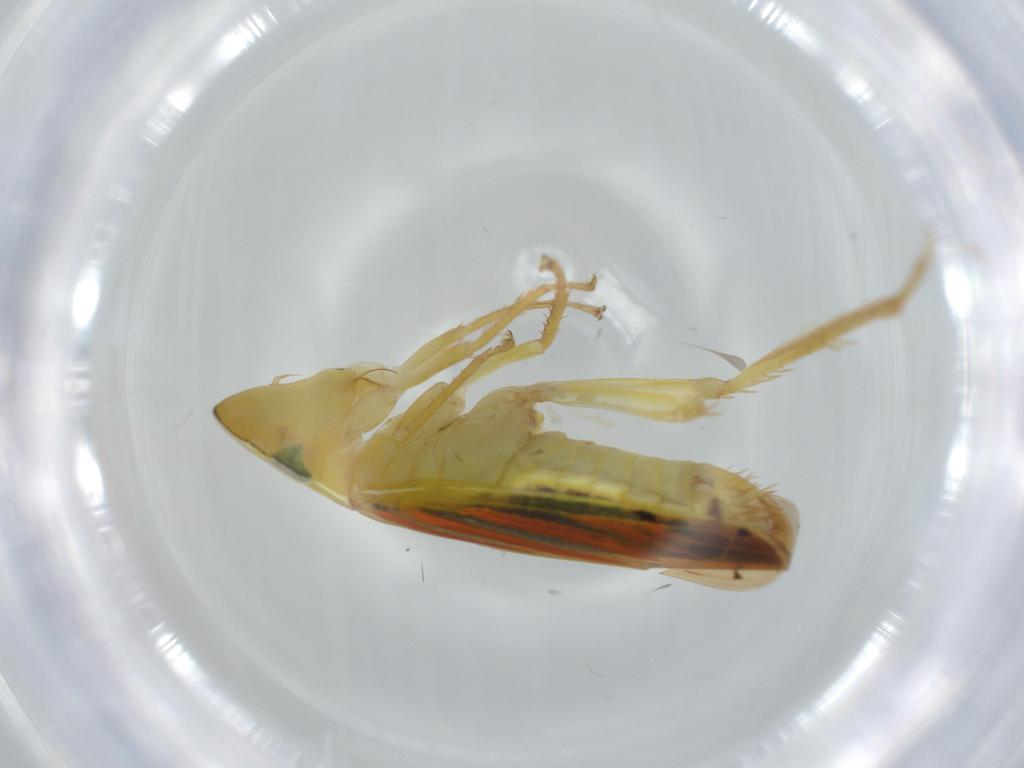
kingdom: Animalia
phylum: Arthropoda
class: Insecta
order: Hemiptera
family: Cicadellidae
